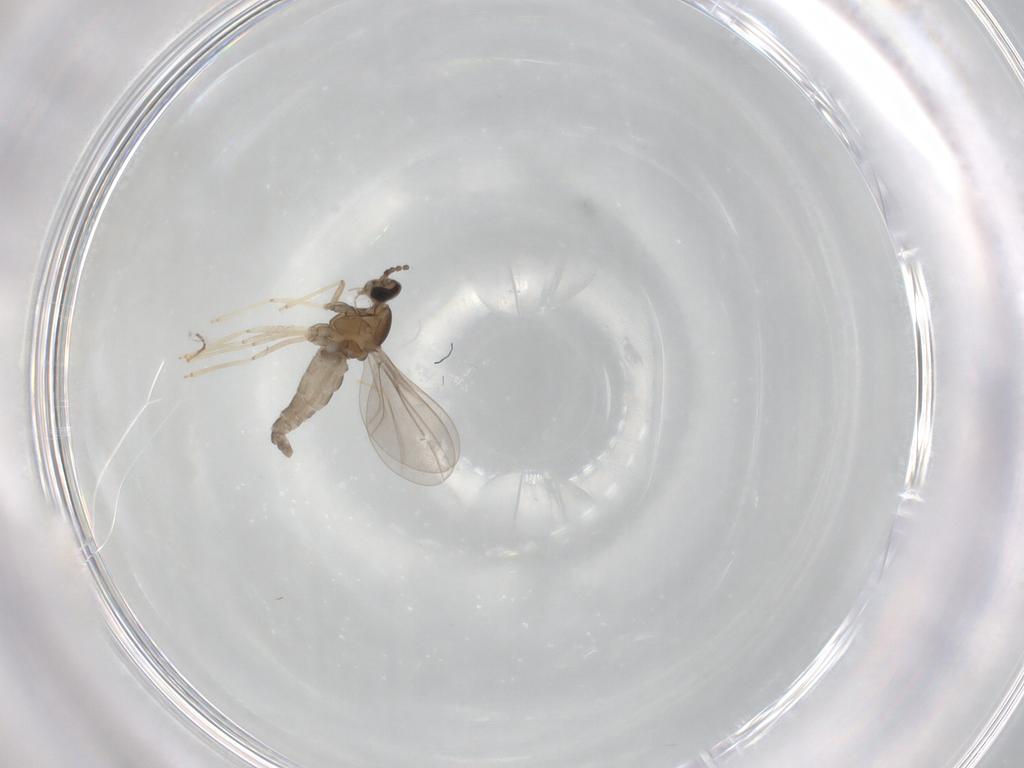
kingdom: Animalia
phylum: Arthropoda
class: Insecta
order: Diptera
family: Cecidomyiidae
